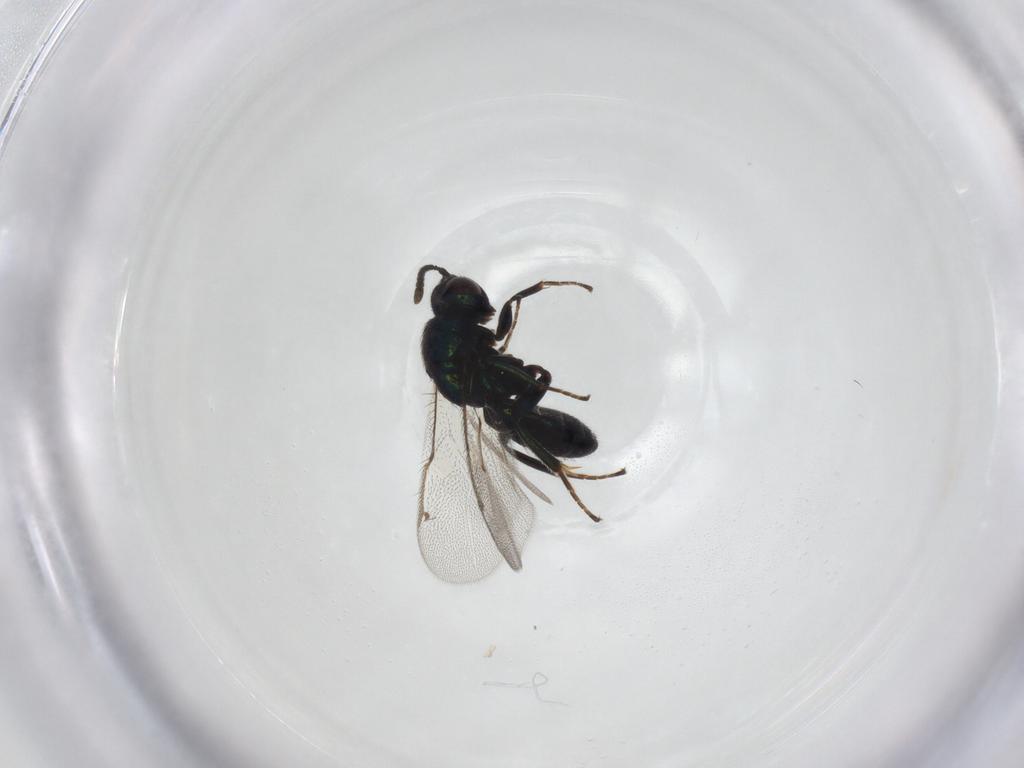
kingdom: Animalia
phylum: Arthropoda
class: Insecta
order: Hymenoptera
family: Ormyridae
